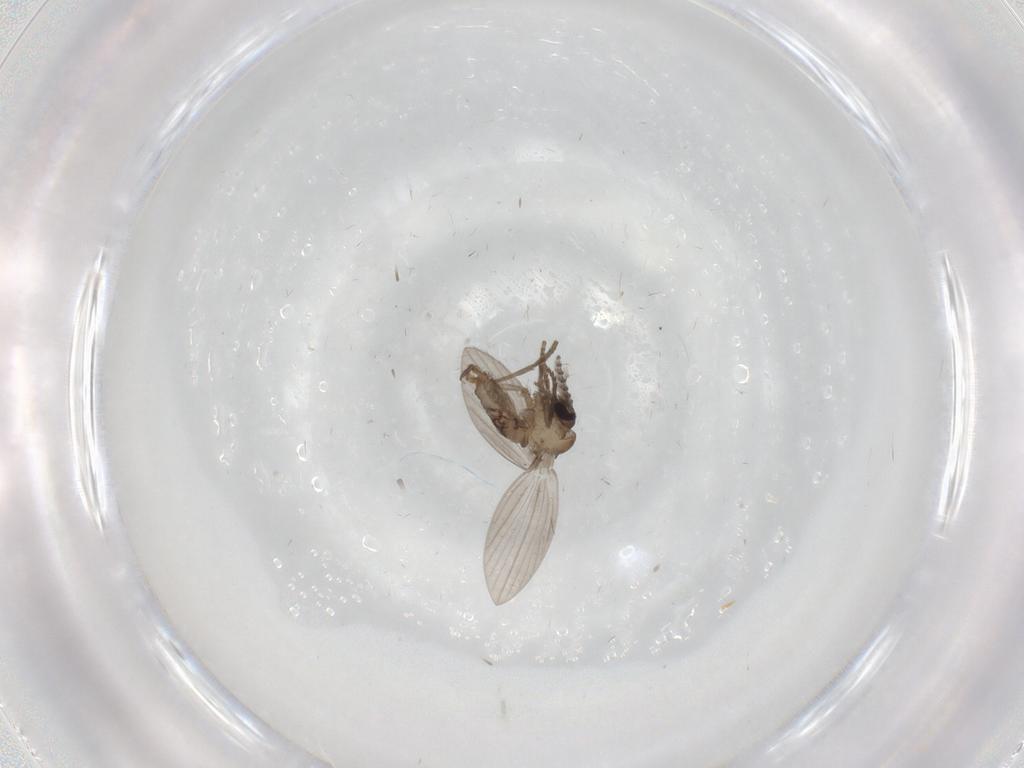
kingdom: Animalia
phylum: Arthropoda
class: Insecta
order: Diptera
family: Psychodidae
